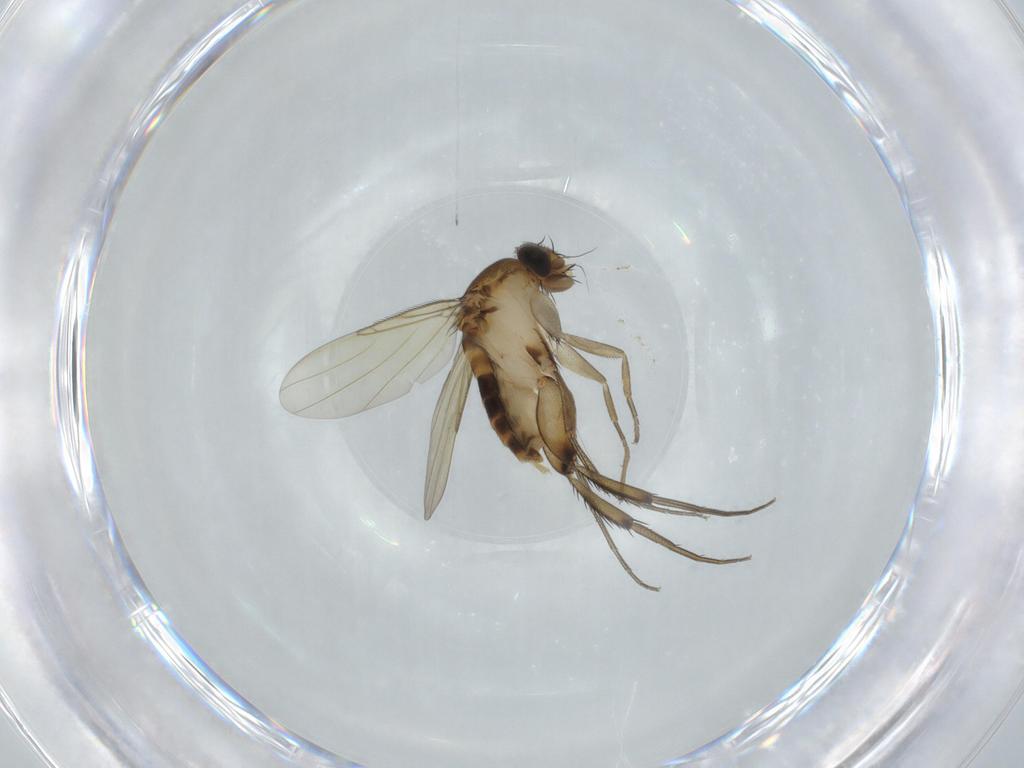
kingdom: Animalia
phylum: Arthropoda
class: Insecta
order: Diptera
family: Phoridae
